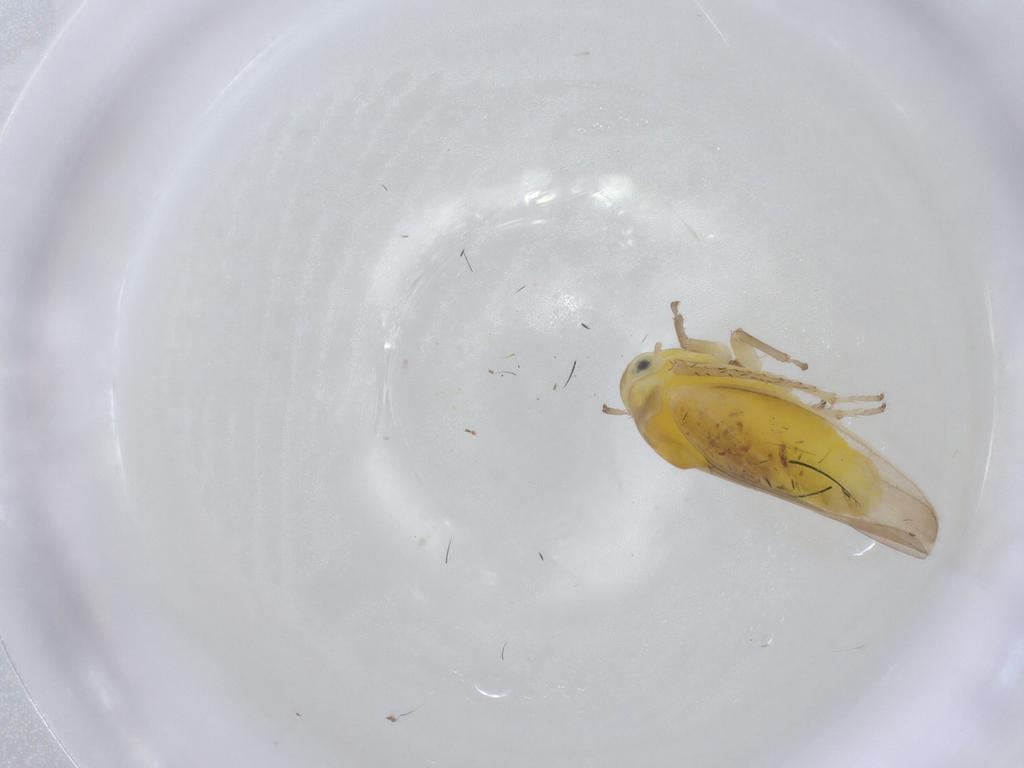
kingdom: Animalia
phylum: Arthropoda
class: Insecta
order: Hemiptera
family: Cicadellidae
